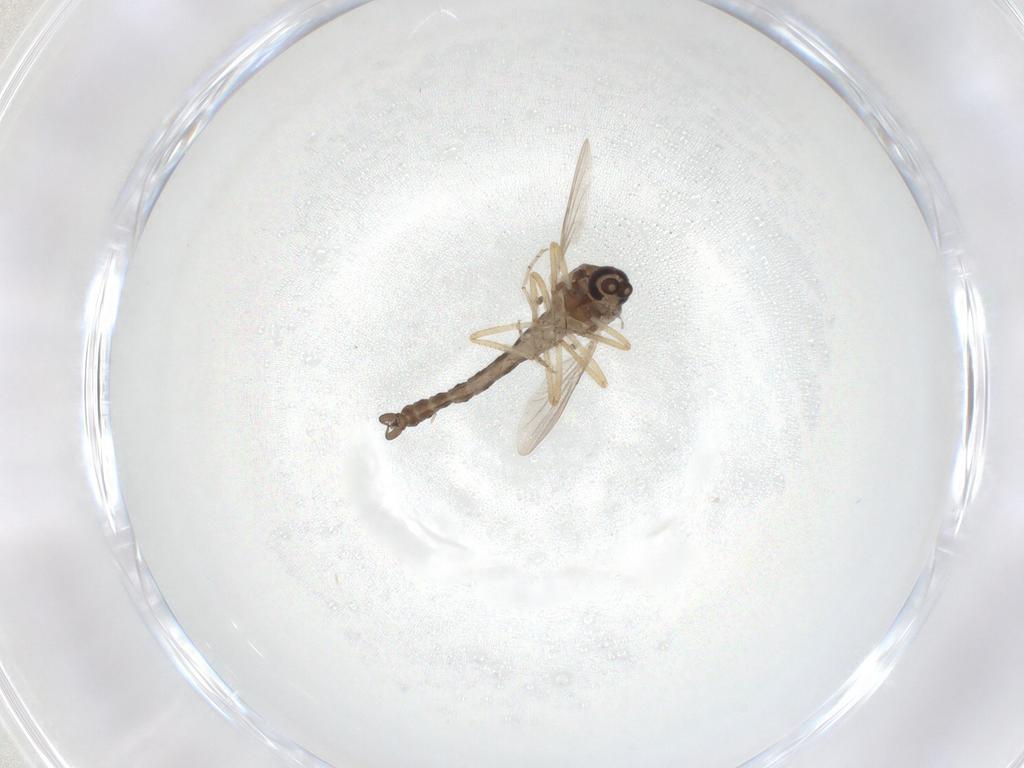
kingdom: Animalia
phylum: Arthropoda
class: Insecta
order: Diptera
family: Ceratopogonidae
